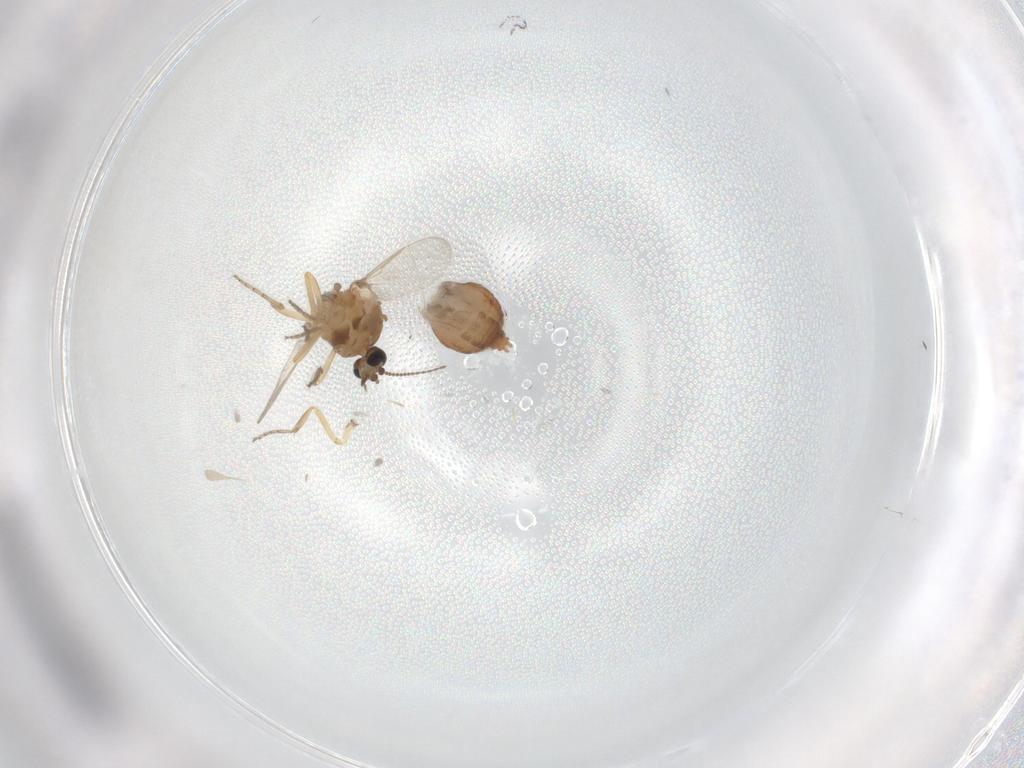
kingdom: Animalia
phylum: Arthropoda
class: Insecta
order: Diptera
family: Ceratopogonidae
